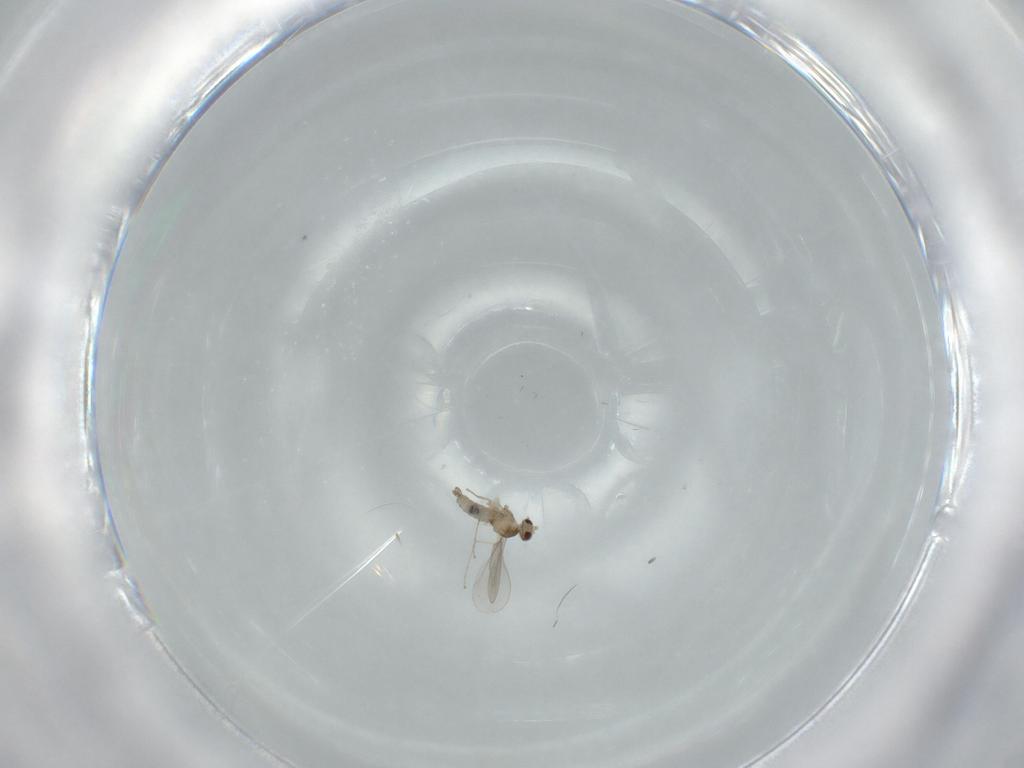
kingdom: Animalia
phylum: Arthropoda
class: Insecta
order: Diptera
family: Cecidomyiidae
